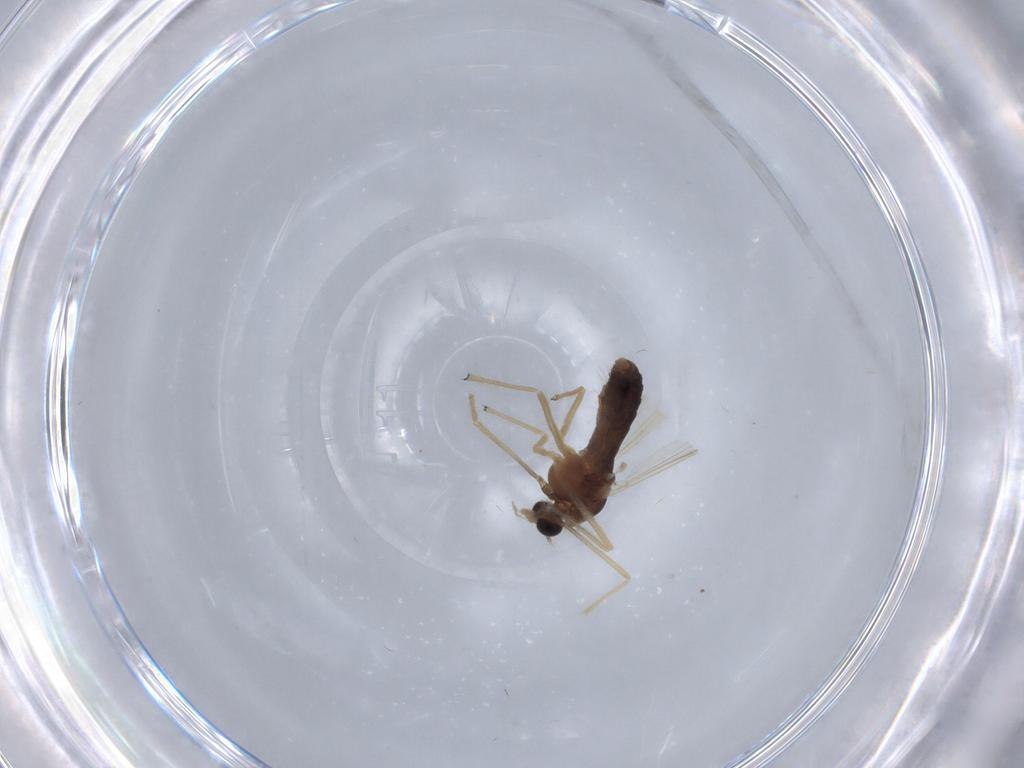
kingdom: Animalia
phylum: Arthropoda
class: Insecta
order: Diptera
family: Chironomidae
